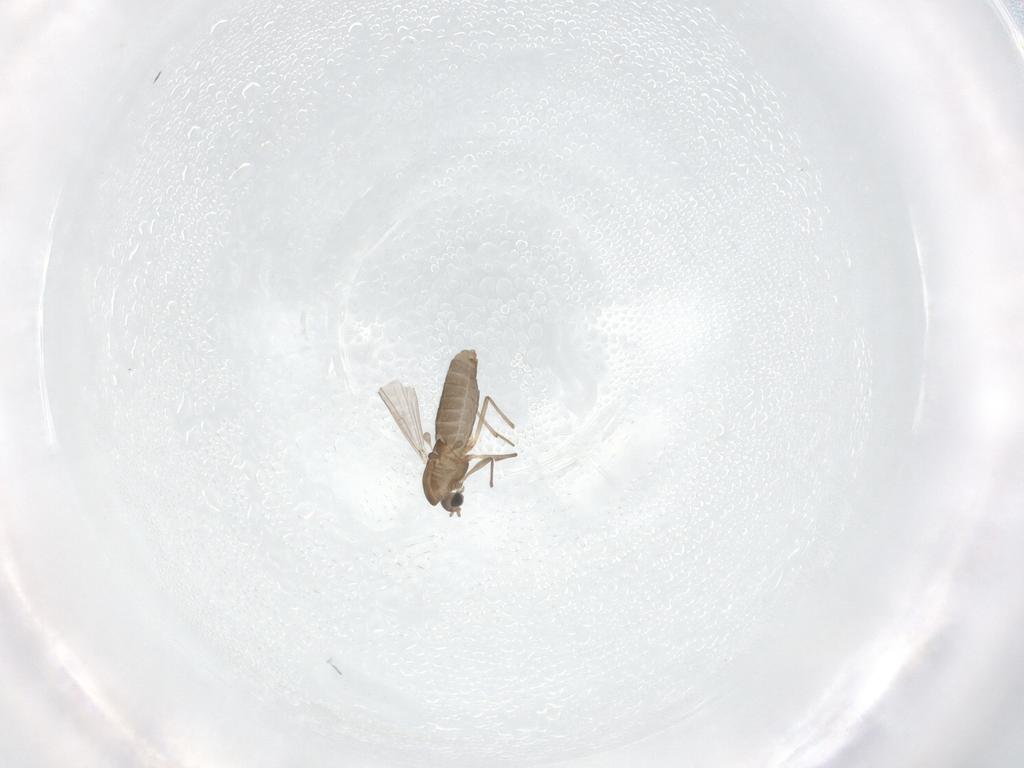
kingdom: Animalia
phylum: Arthropoda
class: Insecta
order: Diptera
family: Chironomidae
